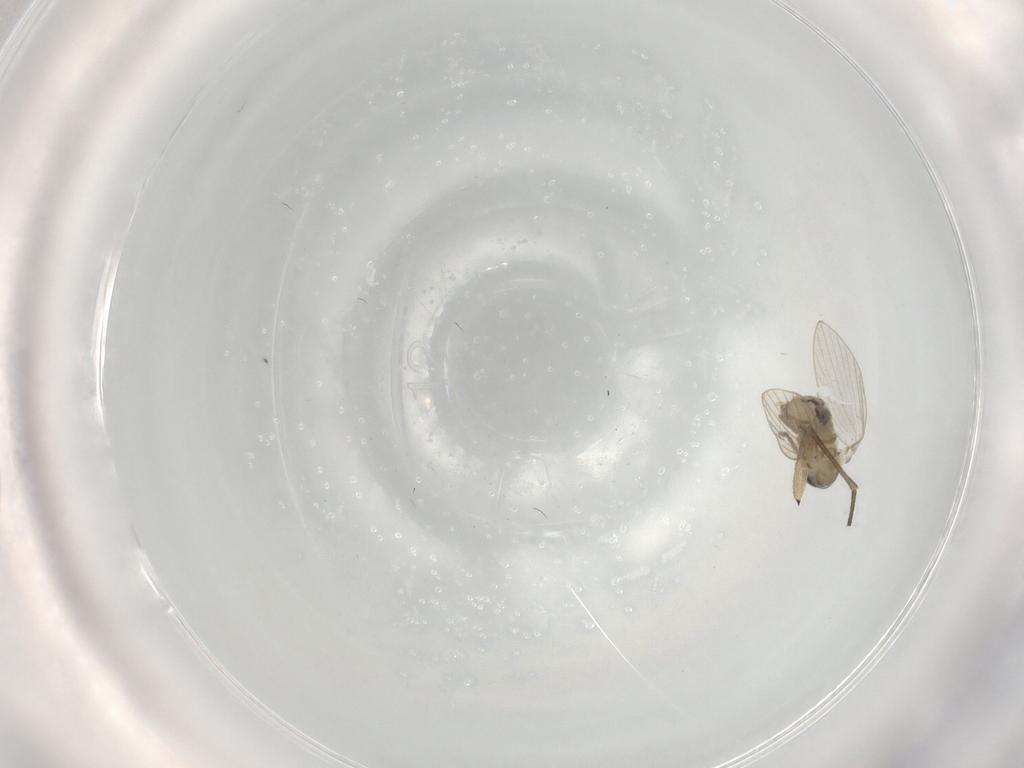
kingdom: Animalia
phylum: Arthropoda
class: Insecta
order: Diptera
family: Psychodidae
